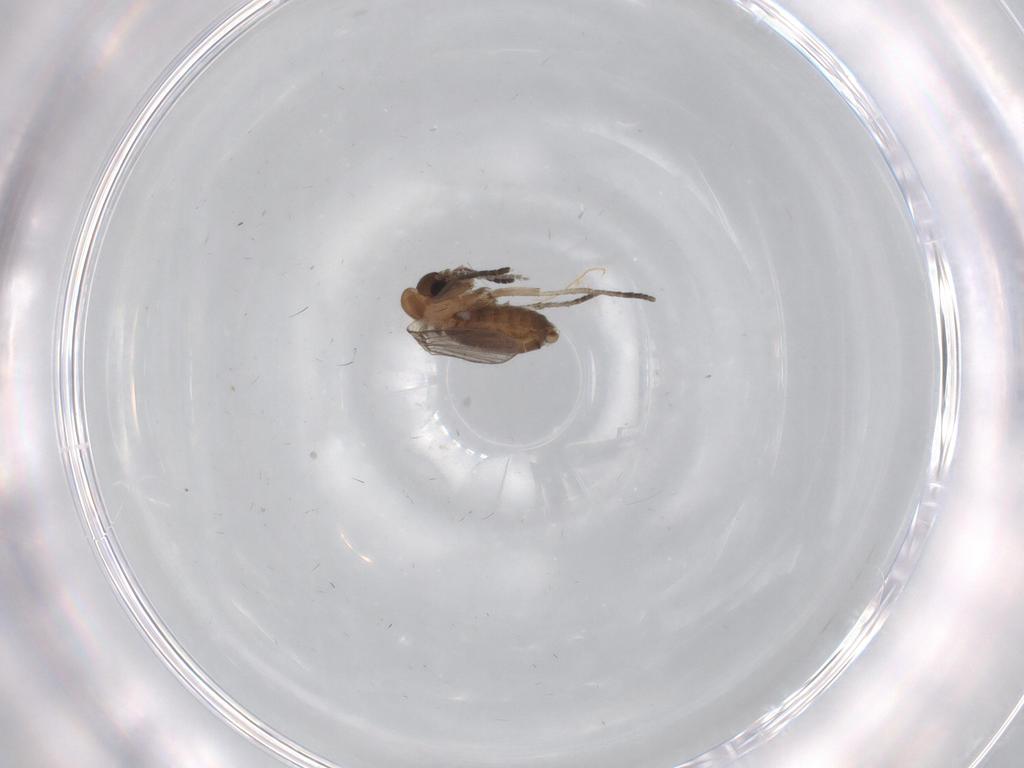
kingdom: Animalia
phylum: Arthropoda
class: Insecta
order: Diptera
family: Psychodidae
